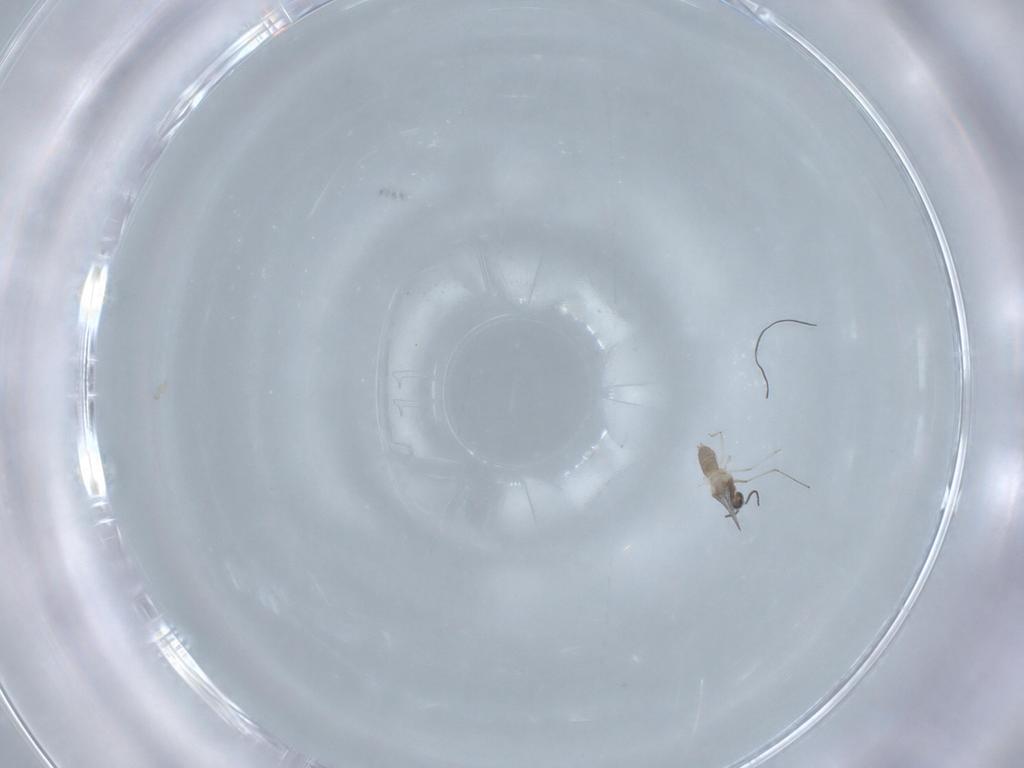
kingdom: Animalia
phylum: Arthropoda
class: Insecta
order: Diptera
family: Cecidomyiidae
